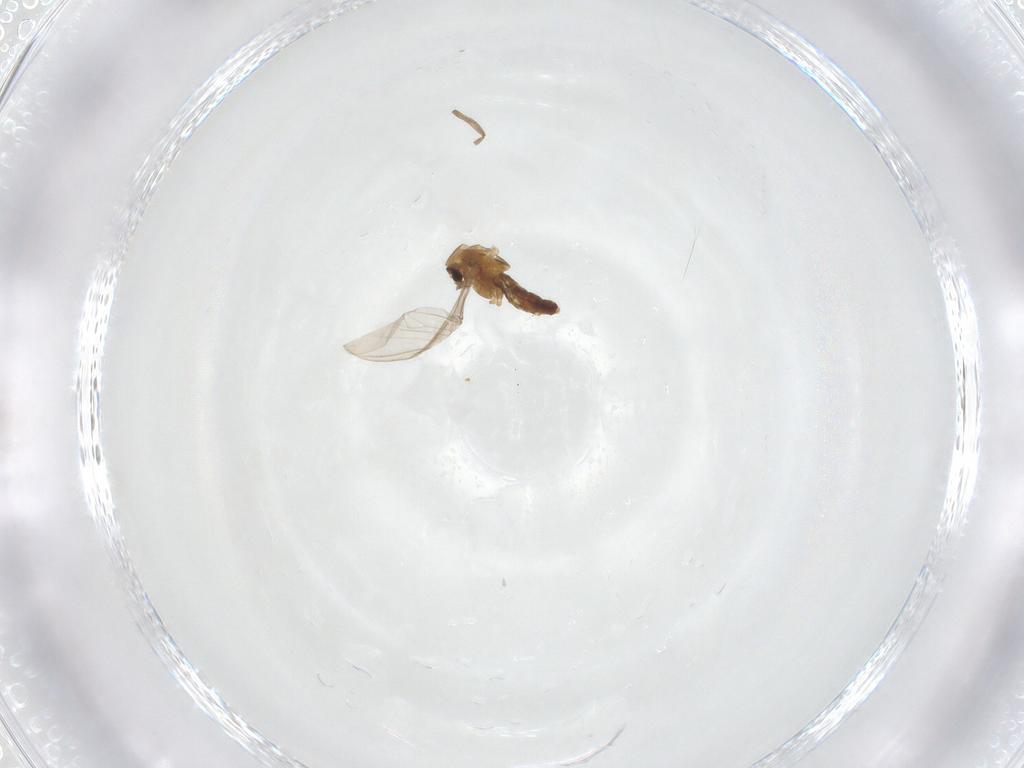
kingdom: Animalia
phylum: Arthropoda
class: Insecta
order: Diptera
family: Chironomidae
